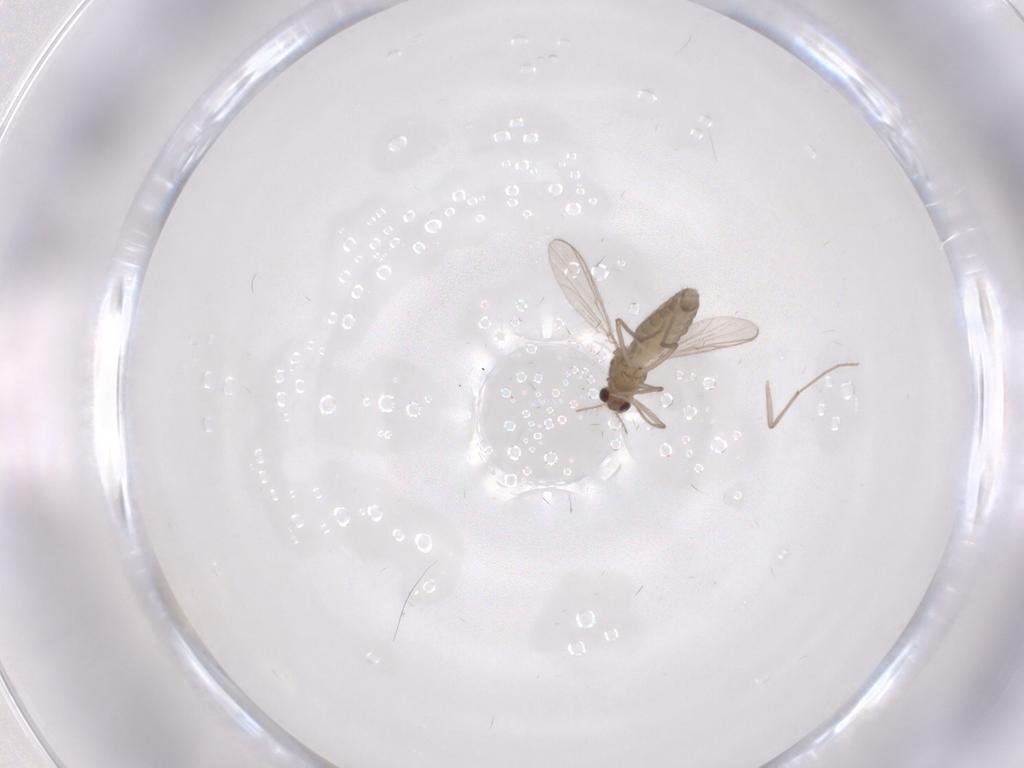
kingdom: Animalia
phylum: Arthropoda
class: Insecta
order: Diptera
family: Chironomidae
